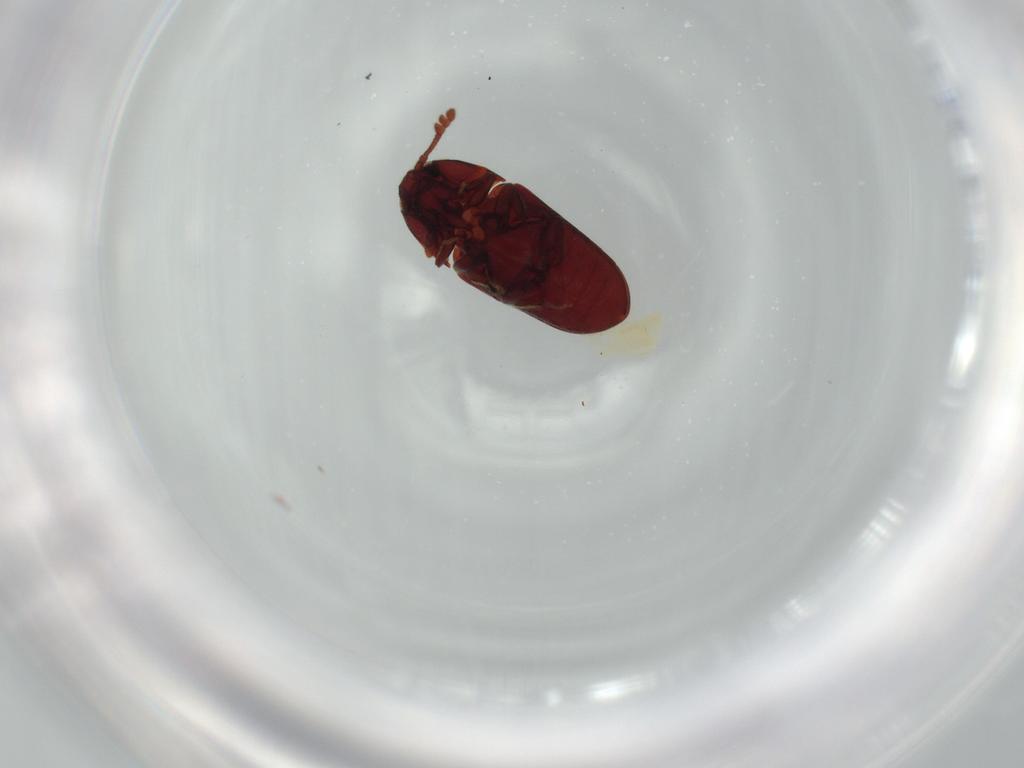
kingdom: Animalia
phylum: Arthropoda
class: Insecta
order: Coleoptera
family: Throscidae
